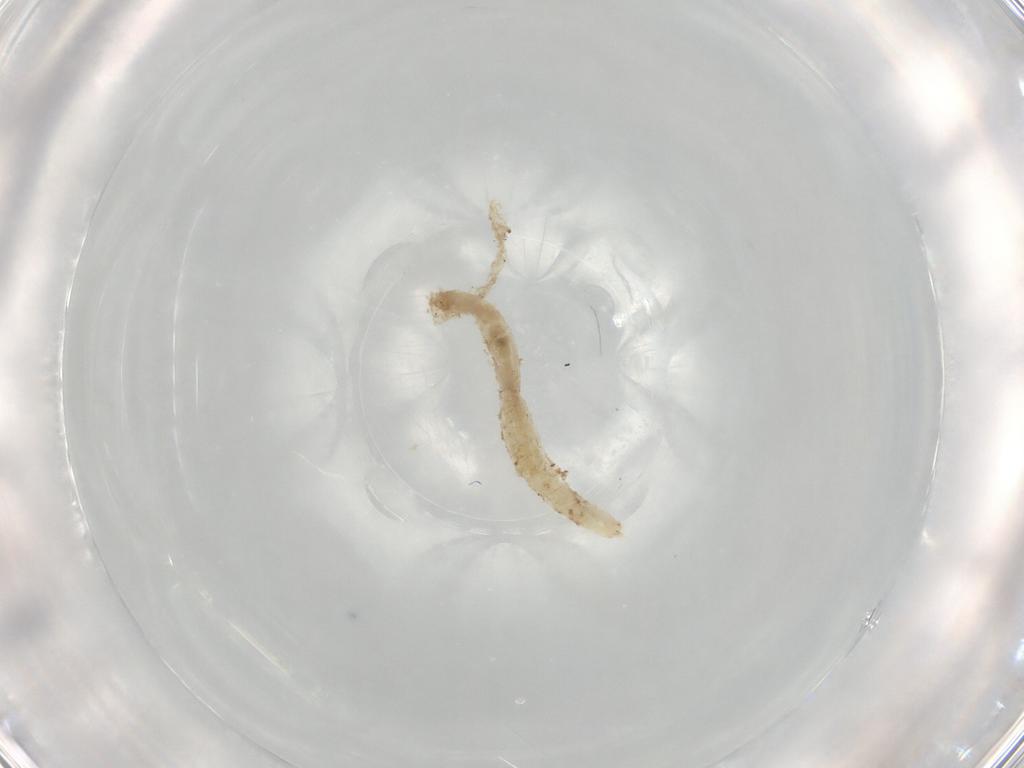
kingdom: Animalia
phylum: Arthropoda
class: Insecta
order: Diptera
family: Chironomidae
